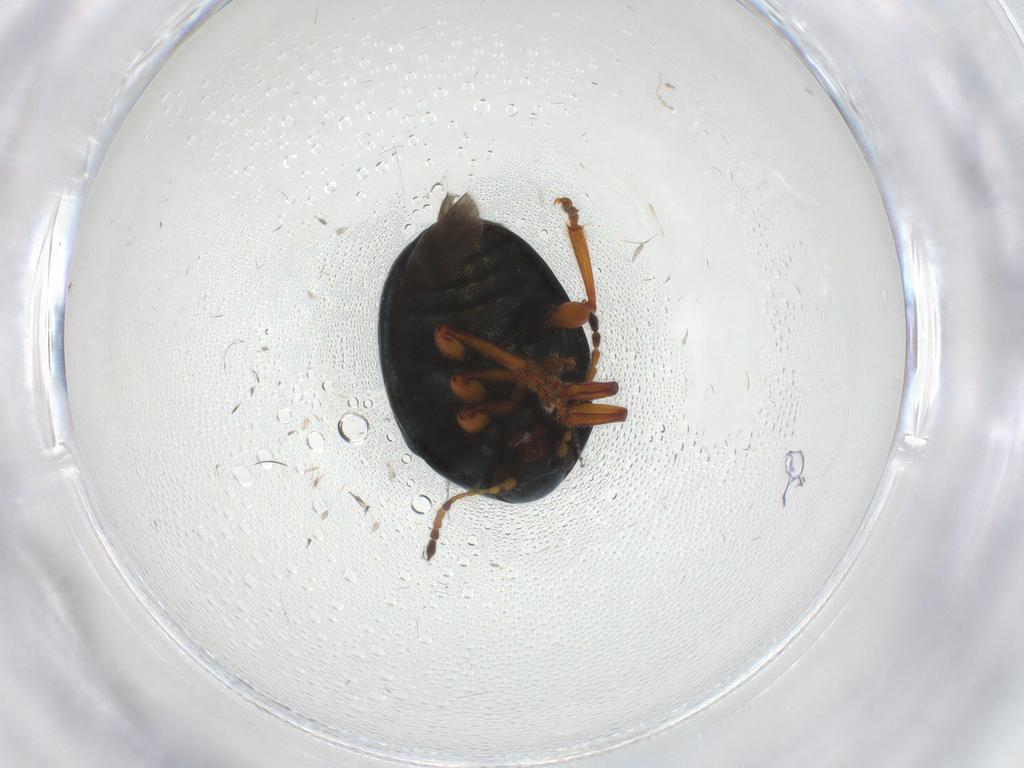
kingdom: Animalia
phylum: Arthropoda
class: Insecta
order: Coleoptera
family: Chrysomelidae
